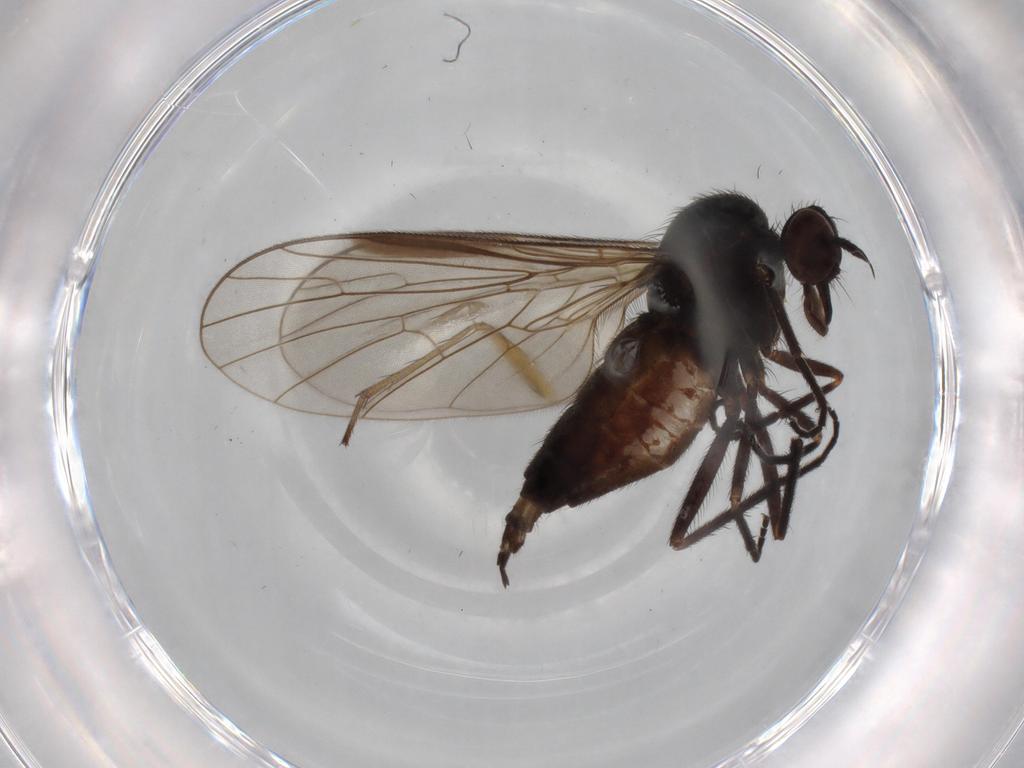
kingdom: Animalia
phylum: Arthropoda
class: Insecta
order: Diptera
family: Empididae
